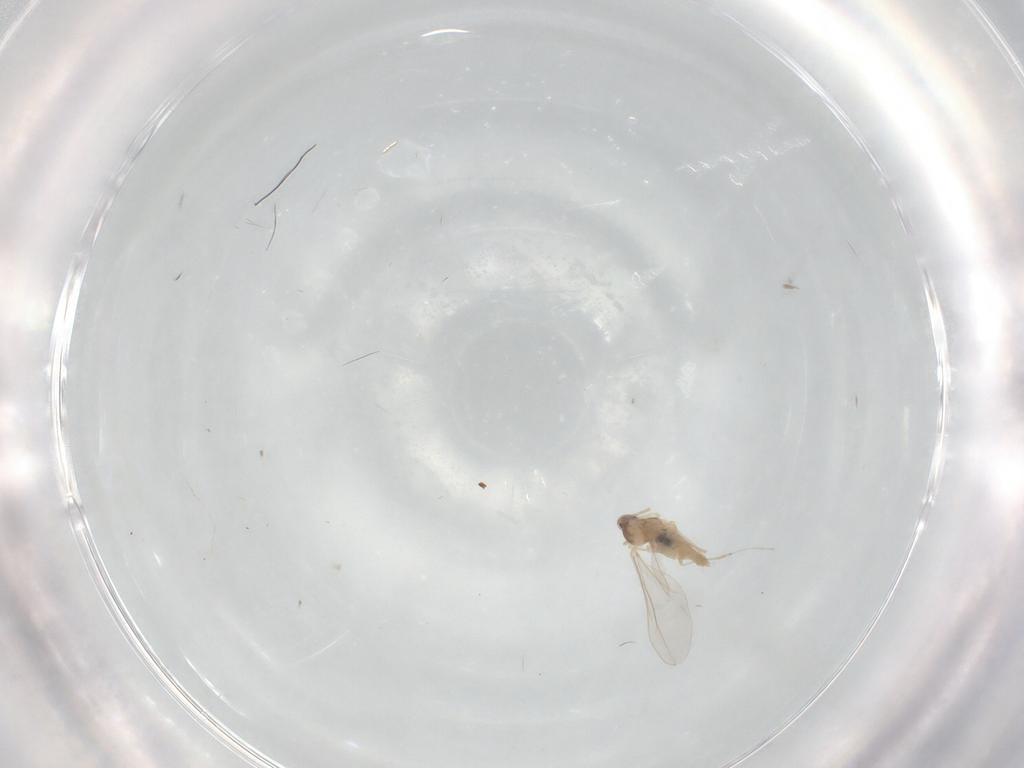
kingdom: Animalia
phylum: Arthropoda
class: Insecta
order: Diptera
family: Cecidomyiidae
